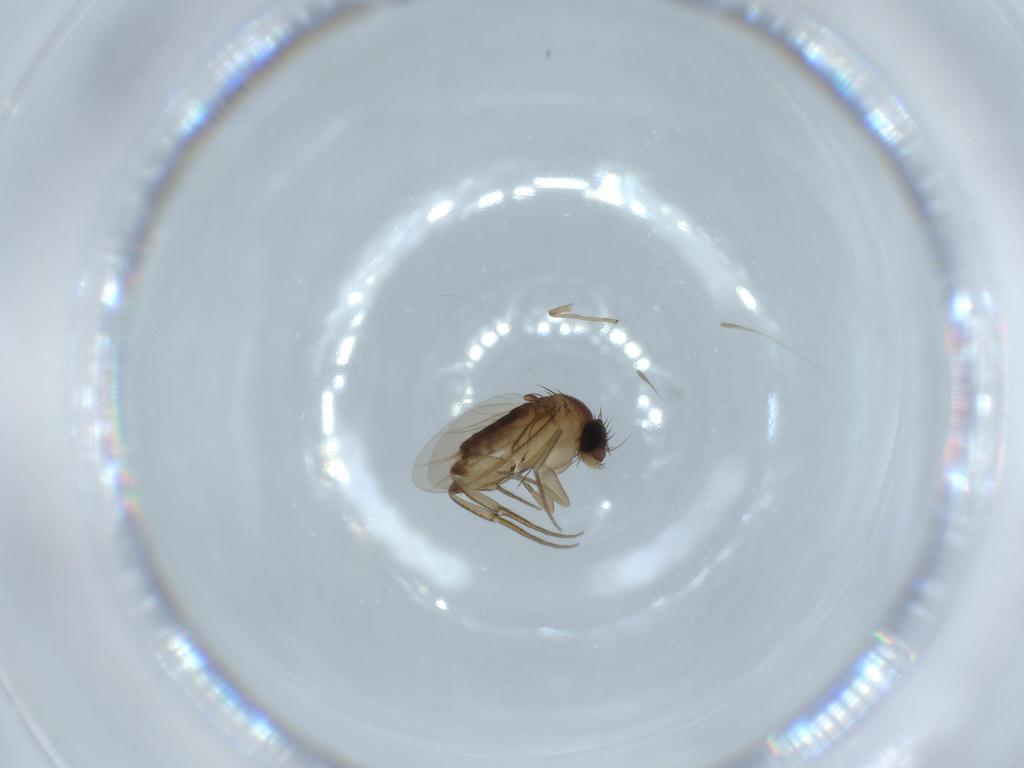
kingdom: Animalia
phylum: Arthropoda
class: Insecta
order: Diptera
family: Phoridae
